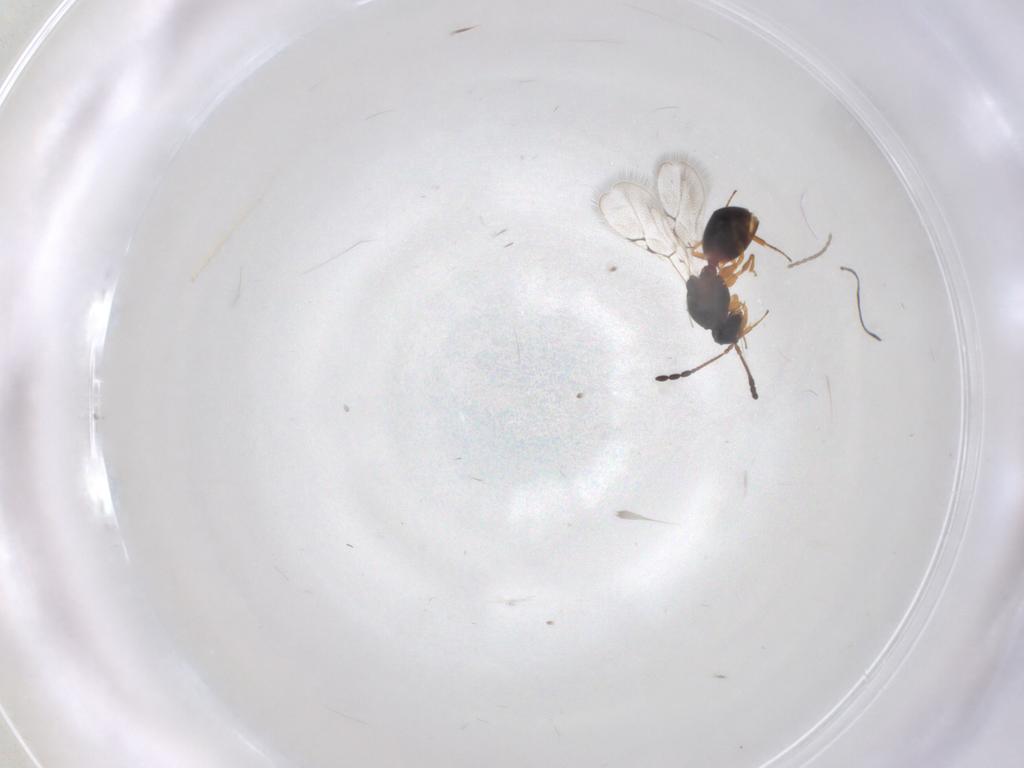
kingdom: Animalia
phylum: Arthropoda
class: Insecta
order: Hymenoptera
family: Figitidae
